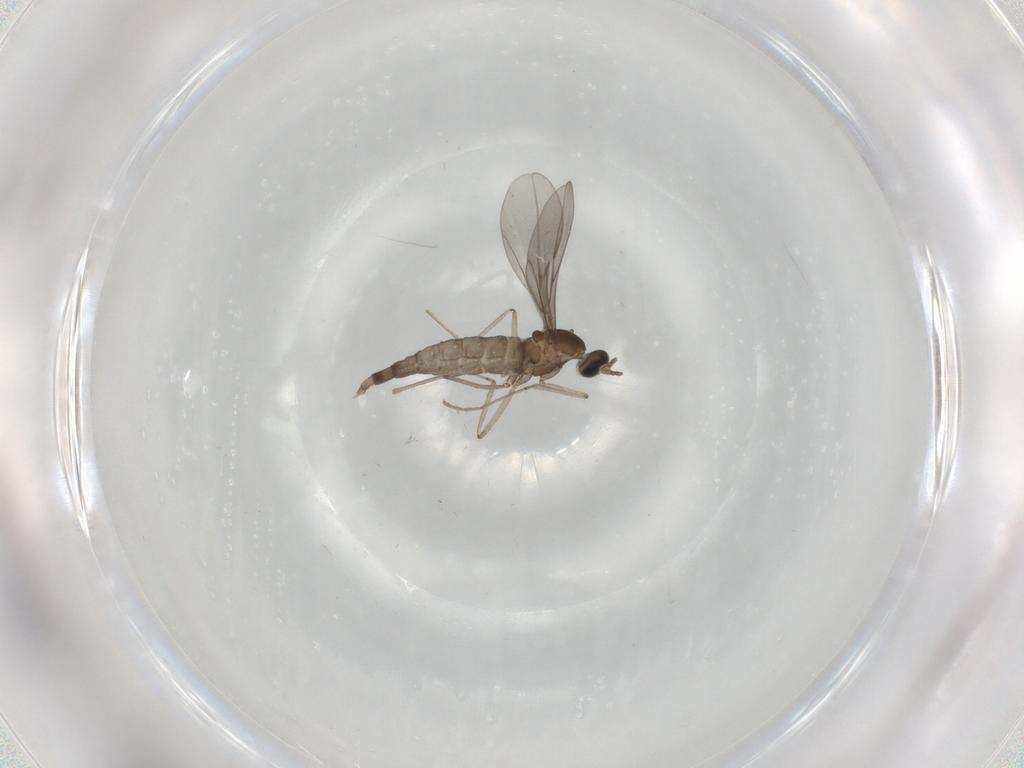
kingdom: Animalia
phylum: Arthropoda
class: Insecta
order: Diptera
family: Cecidomyiidae
